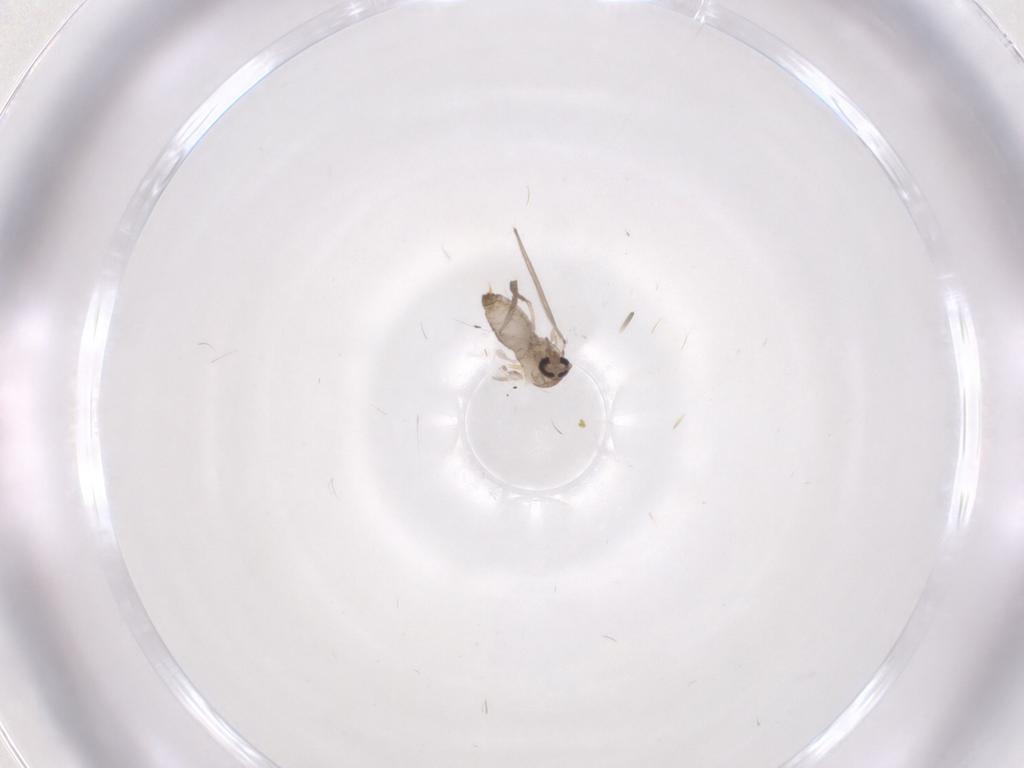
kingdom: Animalia
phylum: Arthropoda
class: Insecta
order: Diptera
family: Psychodidae
